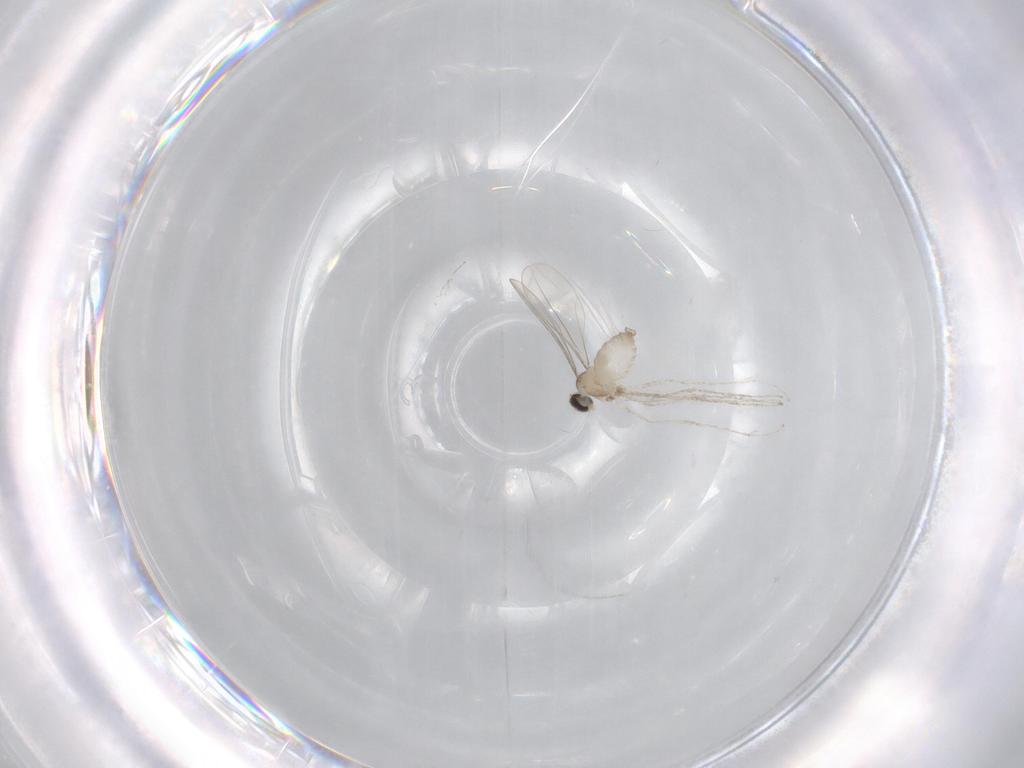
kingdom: Animalia
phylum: Arthropoda
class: Insecta
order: Diptera
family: Cecidomyiidae
